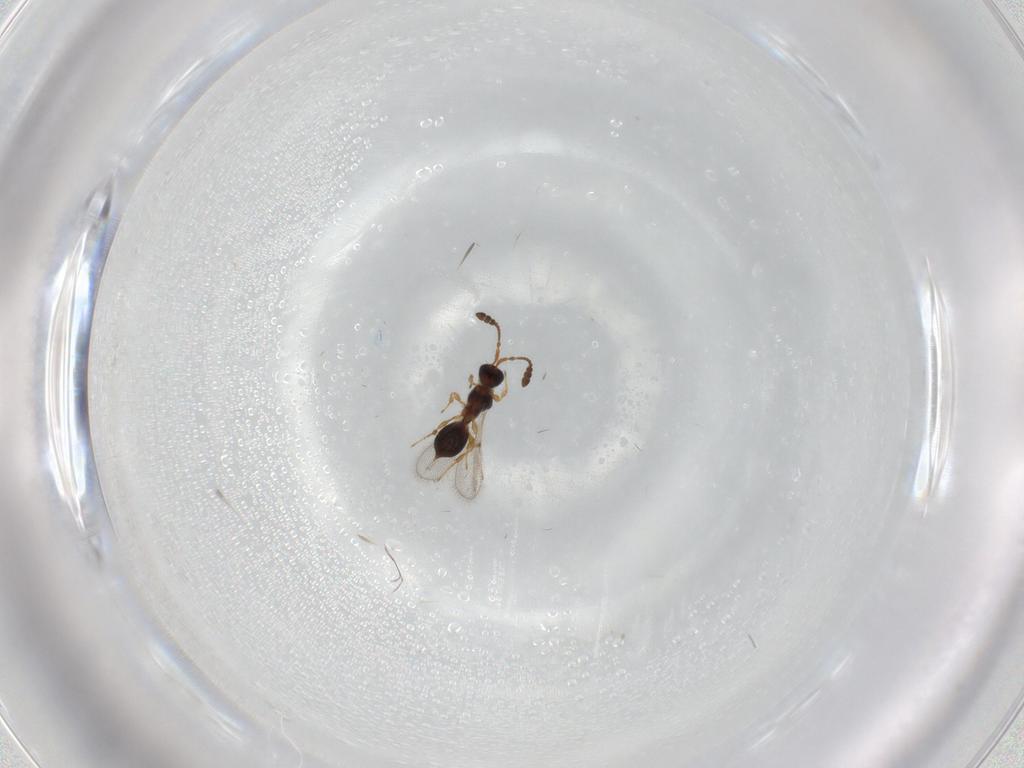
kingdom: Animalia
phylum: Arthropoda
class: Insecta
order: Hymenoptera
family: Diapriidae
